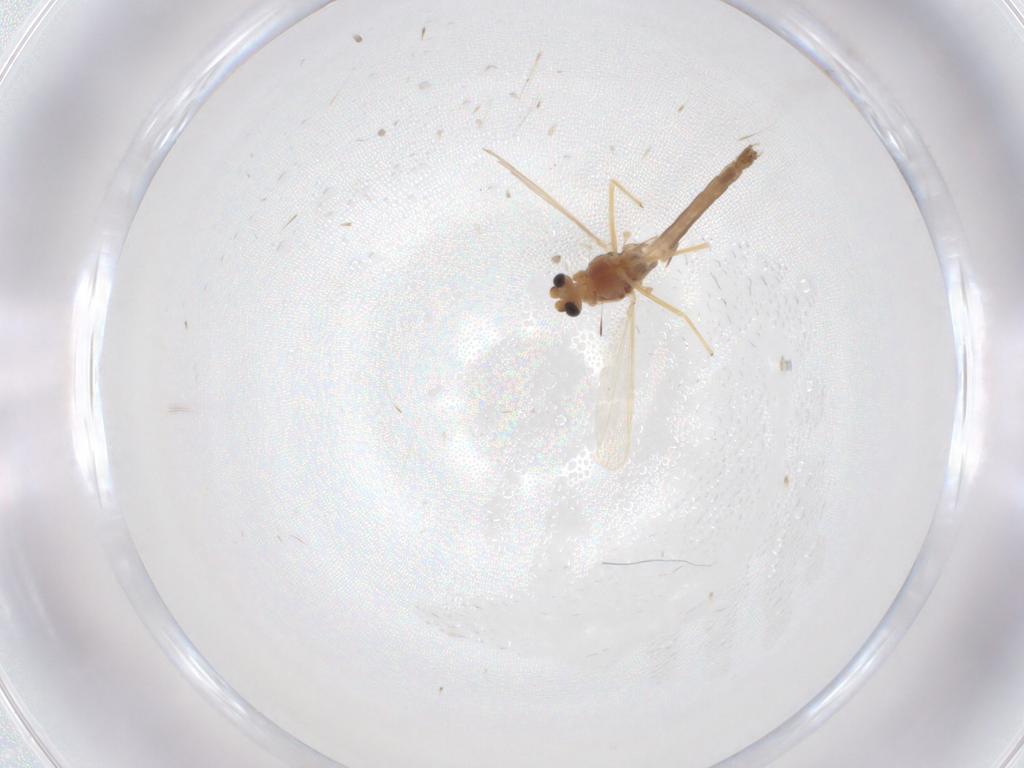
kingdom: Animalia
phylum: Arthropoda
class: Insecta
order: Diptera
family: Chironomidae
